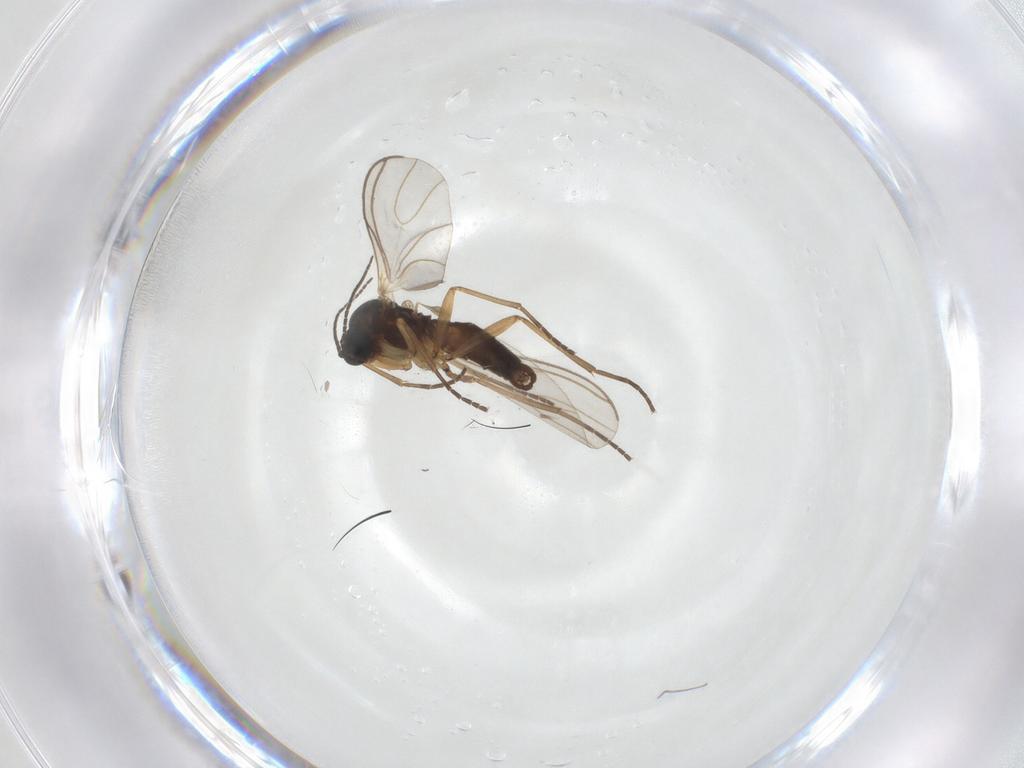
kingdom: Animalia
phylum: Arthropoda
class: Insecta
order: Diptera
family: Sciaridae
